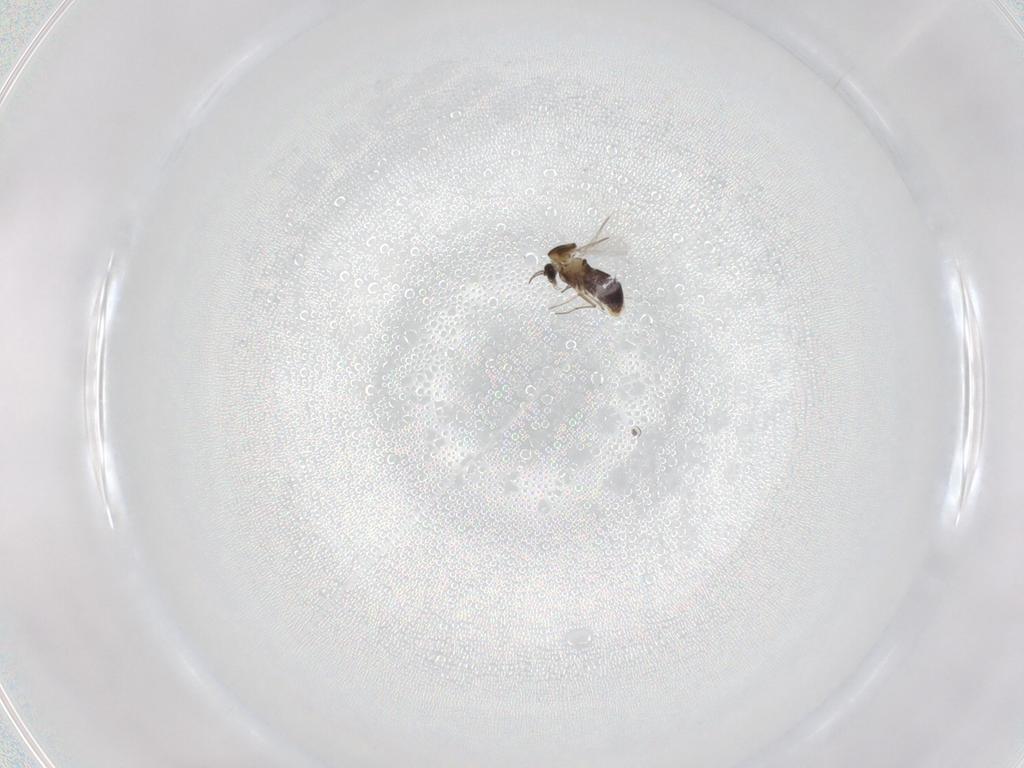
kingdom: Animalia
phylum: Arthropoda
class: Insecta
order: Diptera
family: Chironomidae
